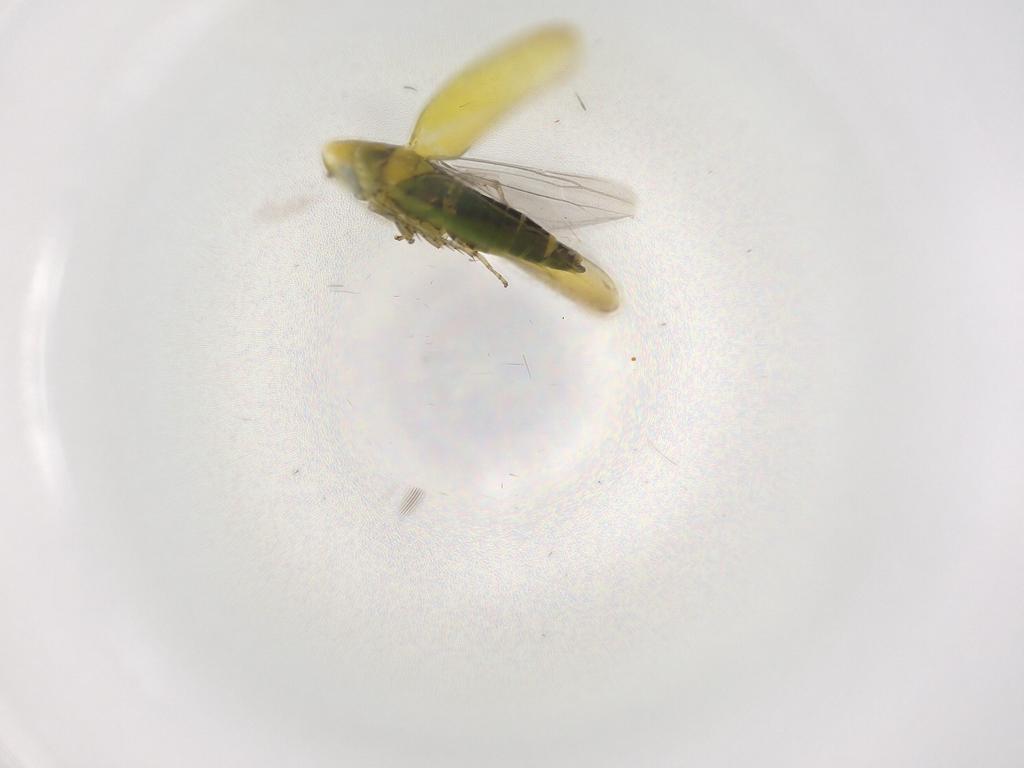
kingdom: Animalia
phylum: Arthropoda
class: Insecta
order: Hemiptera
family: Cicadellidae
